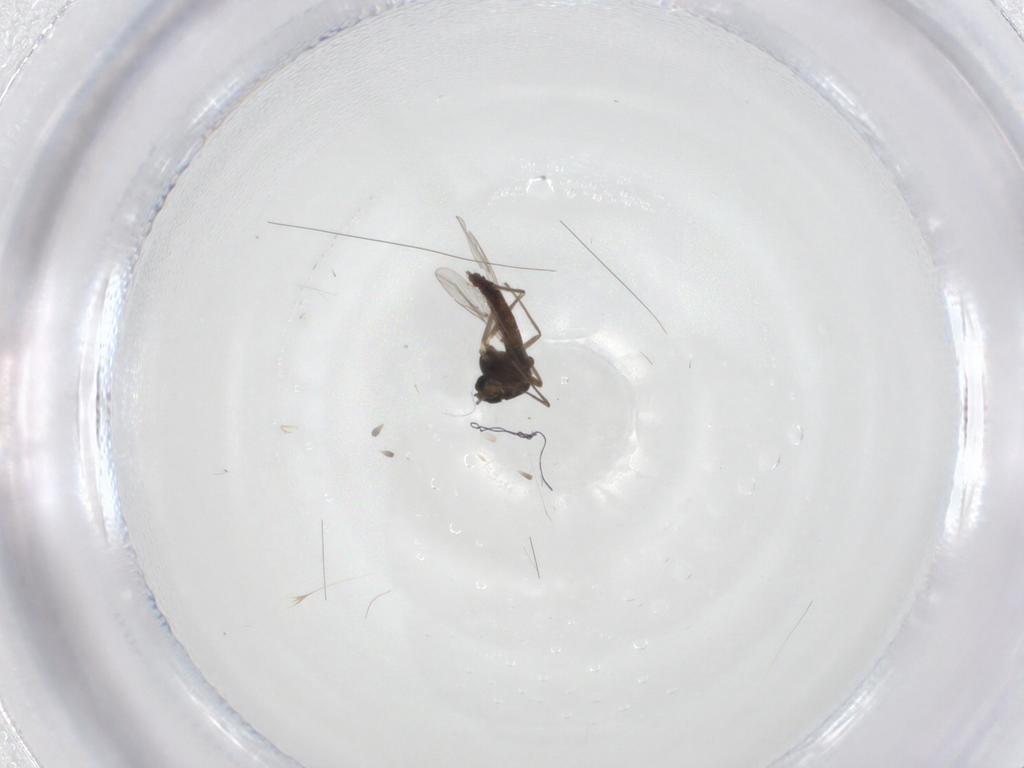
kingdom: Animalia
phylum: Arthropoda
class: Insecta
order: Diptera
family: Chironomidae
